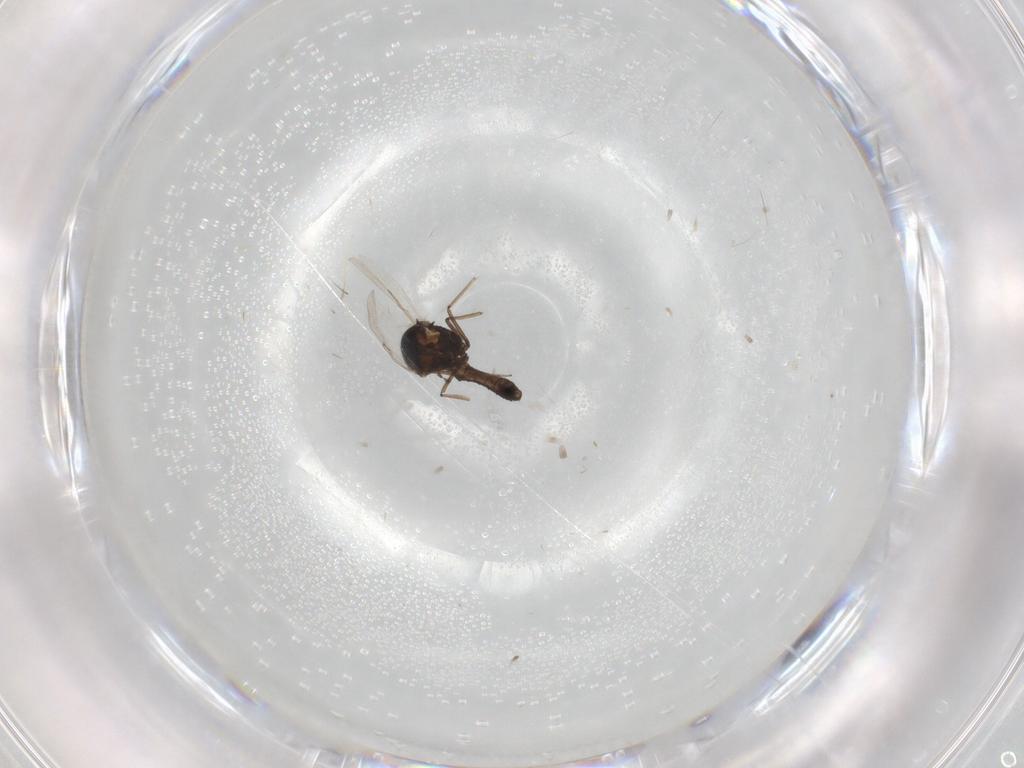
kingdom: Animalia
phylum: Arthropoda
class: Insecta
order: Diptera
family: Ceratopogonidae
